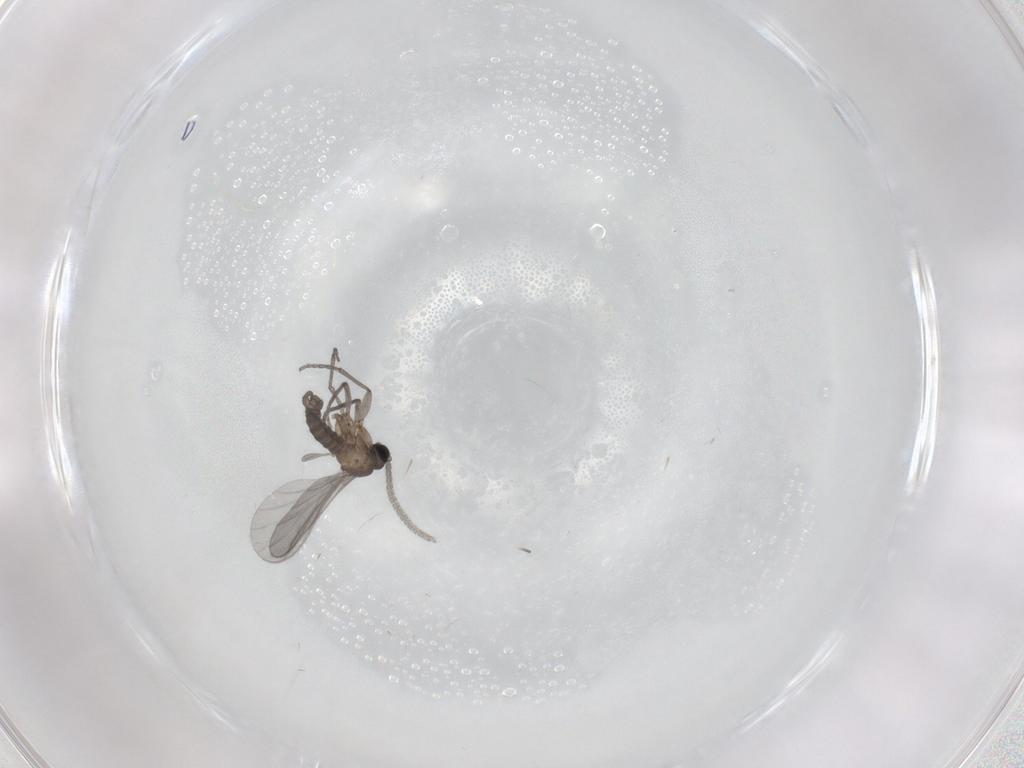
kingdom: Animalia
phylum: Arthropoda
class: Insecta
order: Diptera
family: Sciaridae
